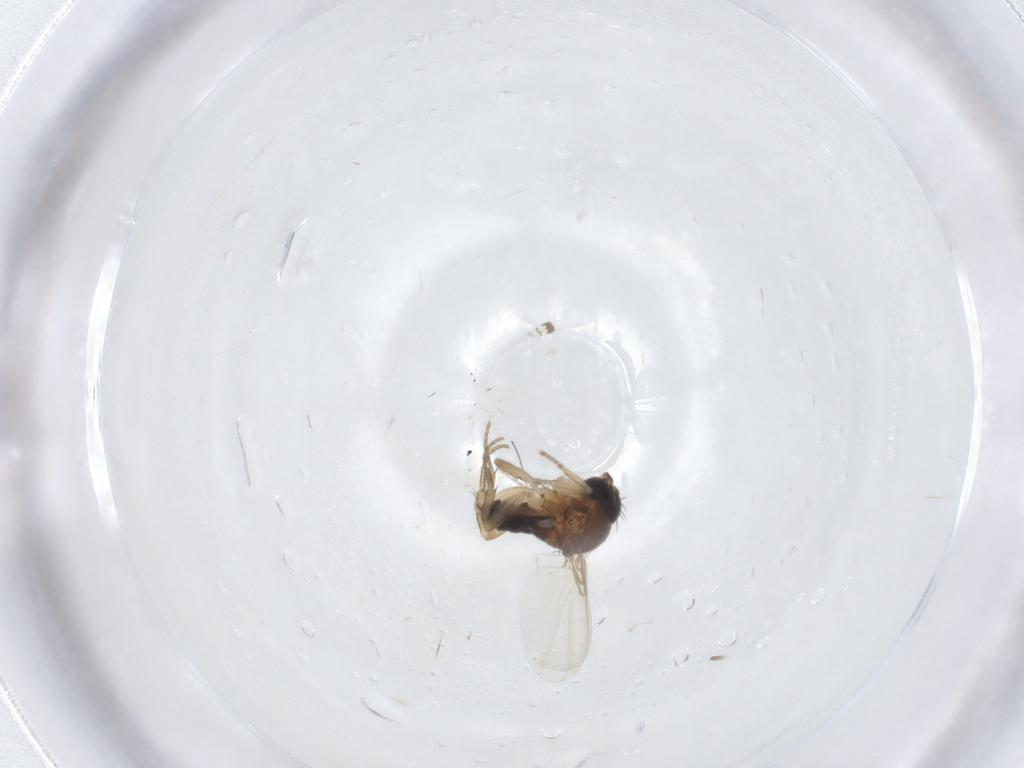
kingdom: Animalia
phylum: Arthropoda
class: Insecta
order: Diptera
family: Phoridae
